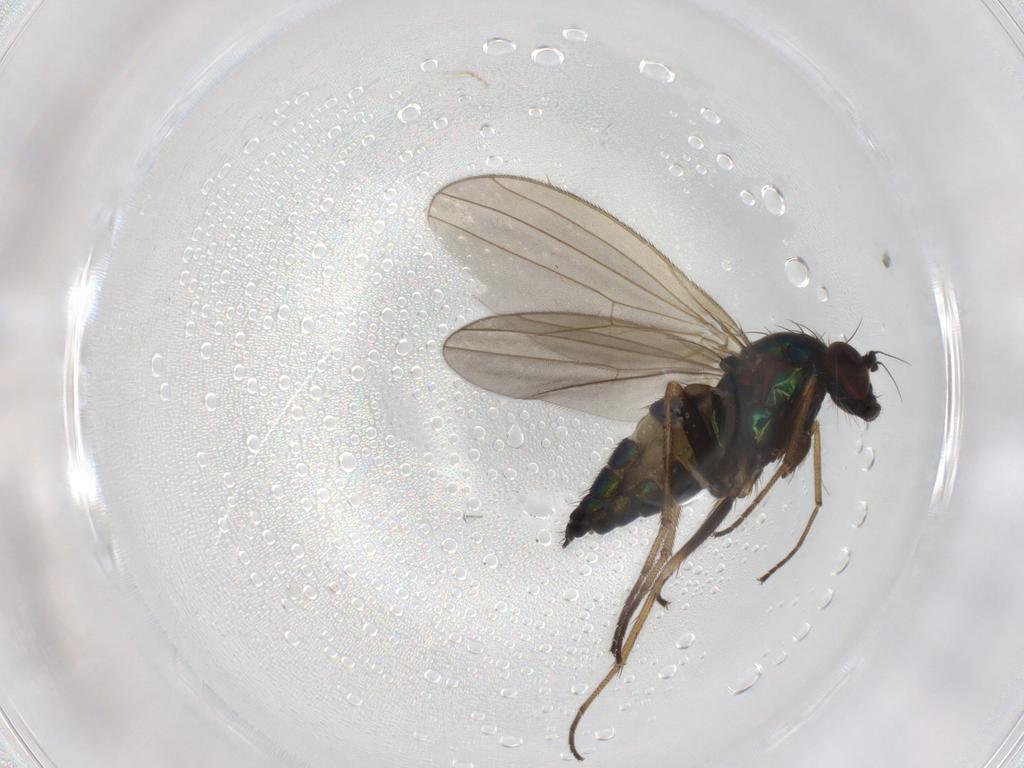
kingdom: Animalia
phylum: Arthropoda
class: Insecta
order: Diptera
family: Dolichopodidae
